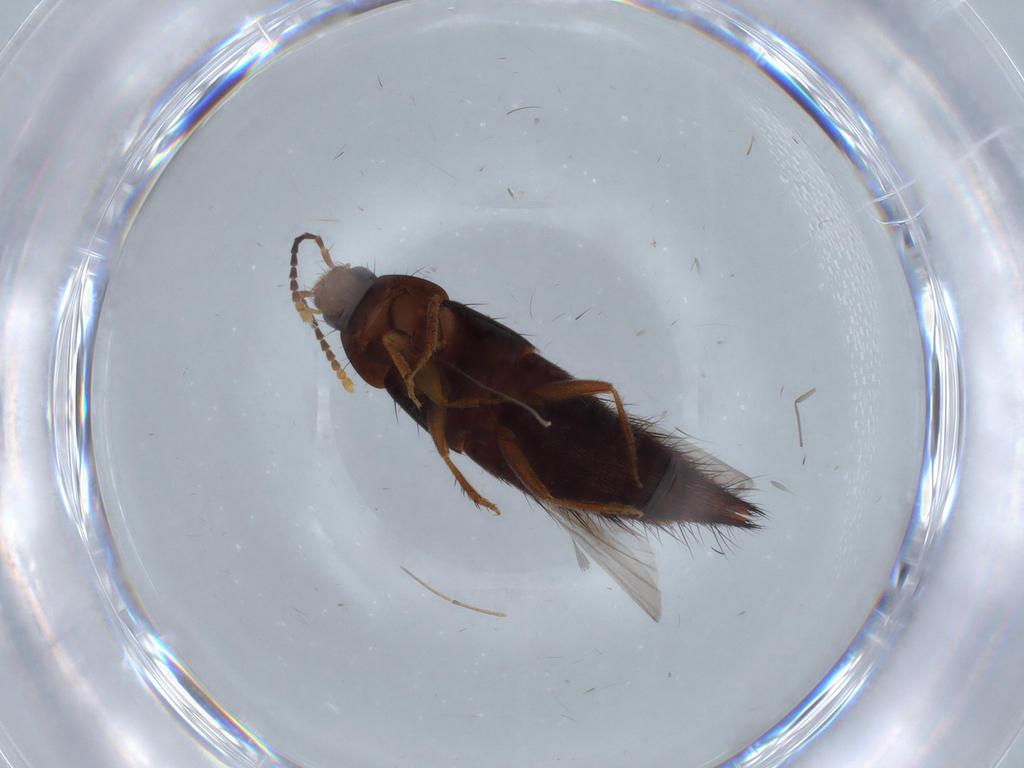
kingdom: Animalia
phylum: Arthropoda
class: Insecta
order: Coleoptera
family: Staphylinidae
